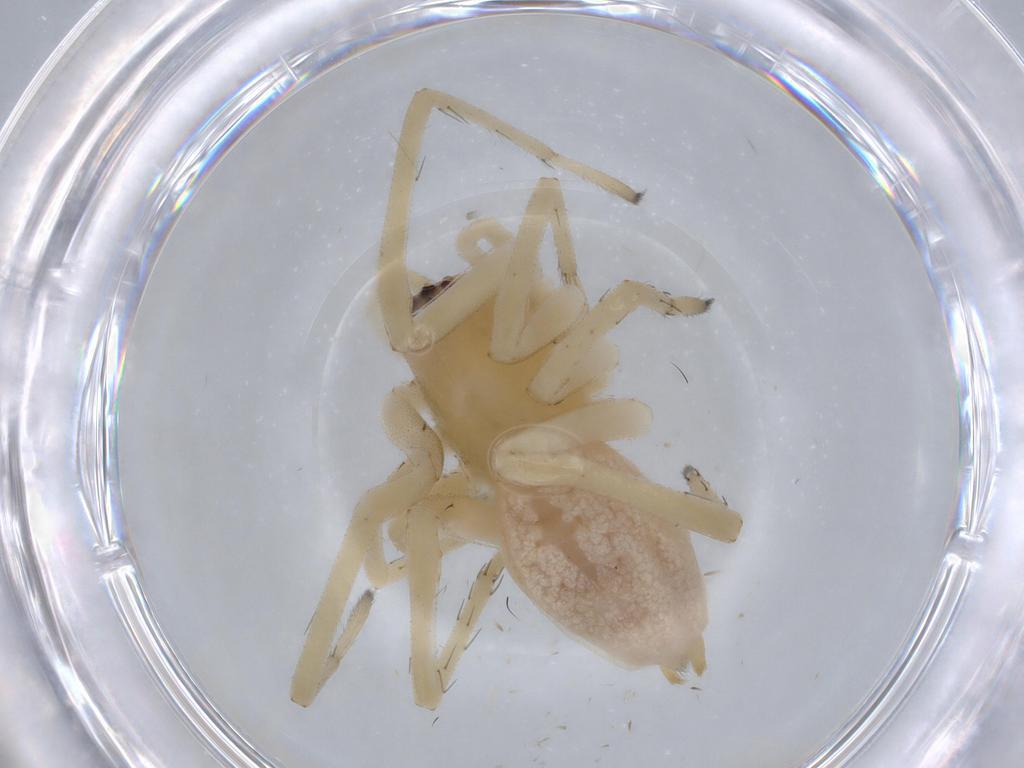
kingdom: Animalia
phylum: Arthropoda
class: Arachnida
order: Araneae
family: Cheiracanthiidae
